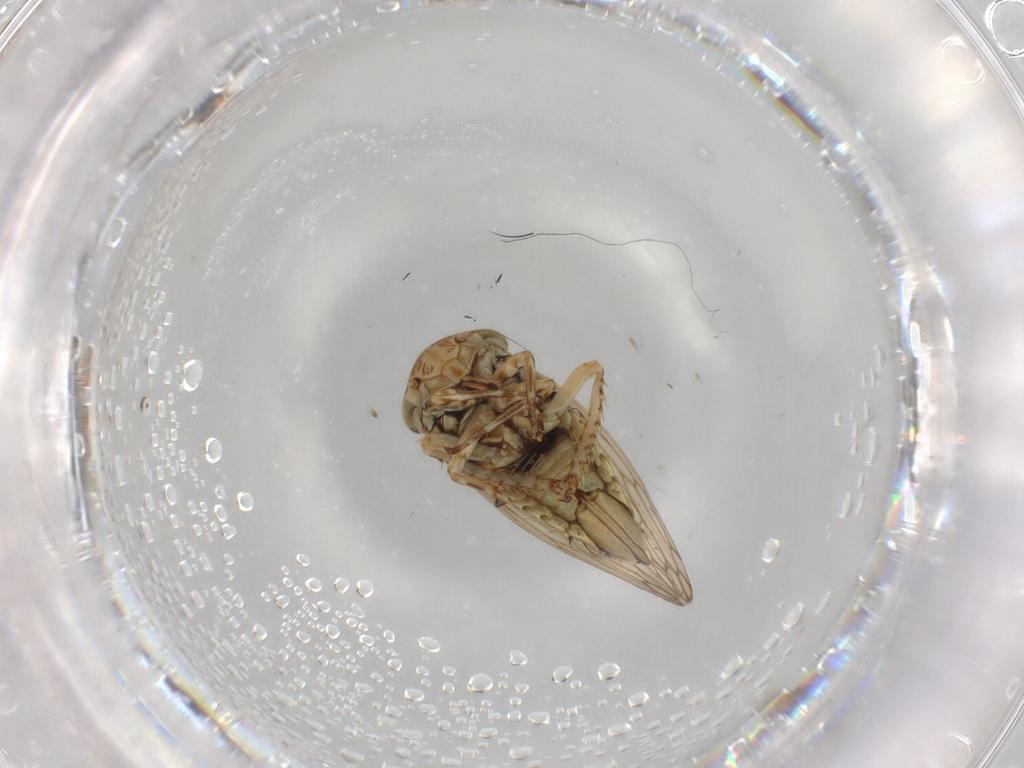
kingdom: Animalia
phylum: Arthropoda
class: Insecta
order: Hemiptera
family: Cicadellidae
